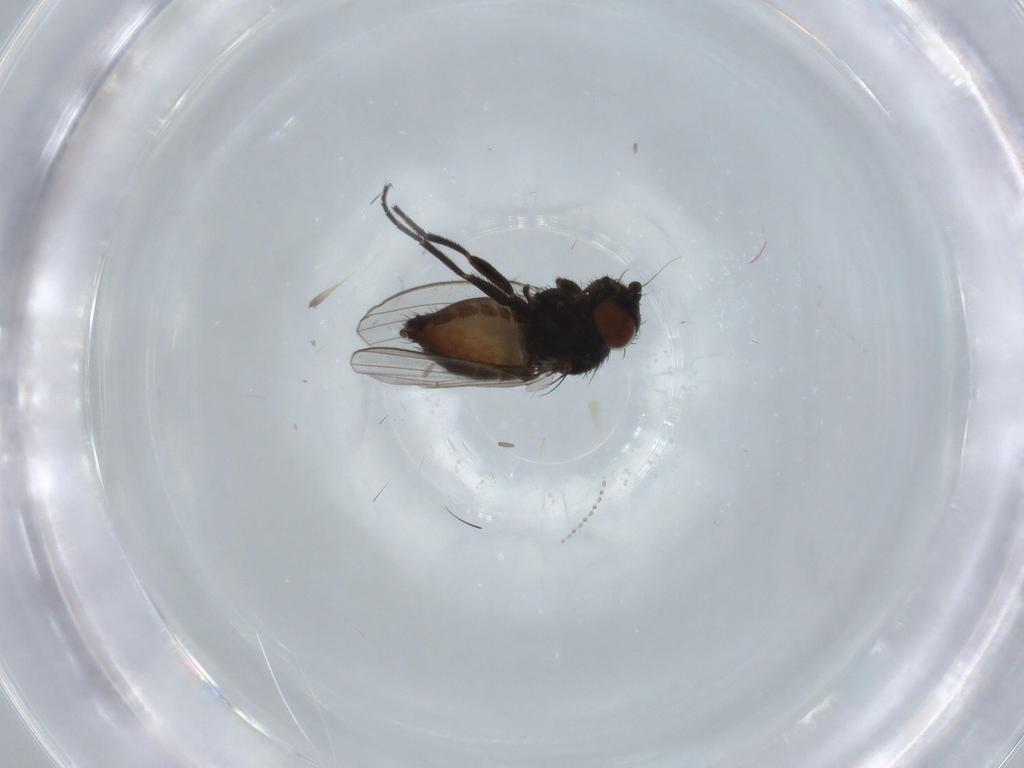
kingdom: Animalia
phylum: Arthropoda
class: Insecta
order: Diptera
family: Milichiidae
